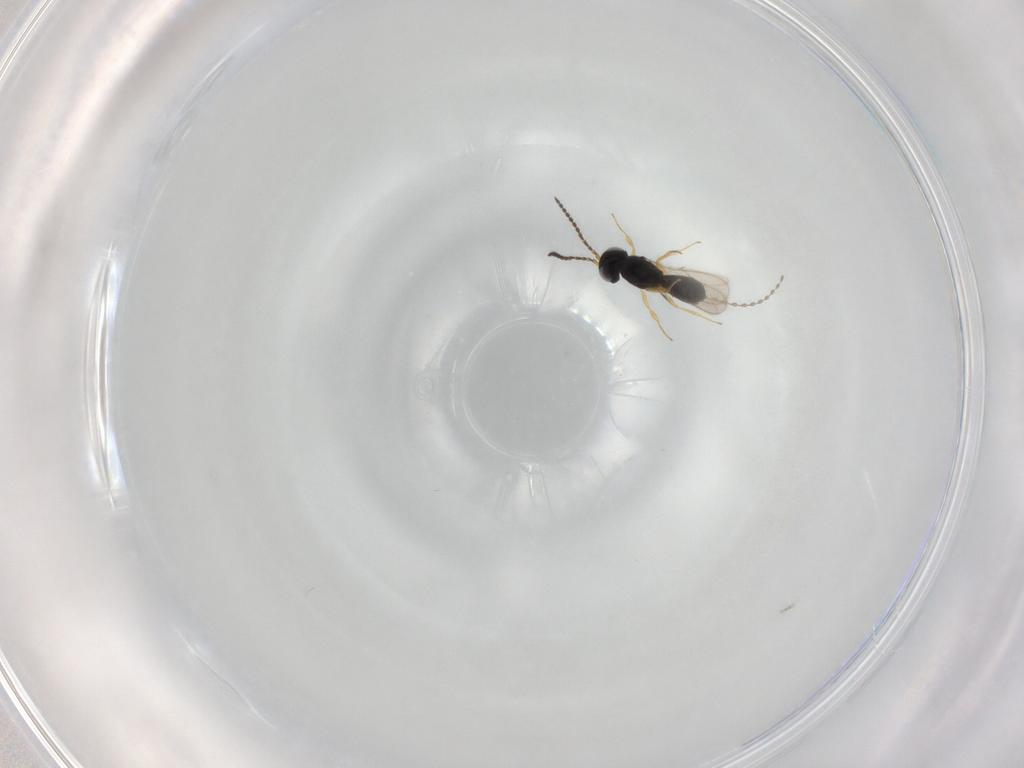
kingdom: Animalia
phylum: Arthropoda
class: Insecta
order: Hymenoptera
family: Scelionidae
